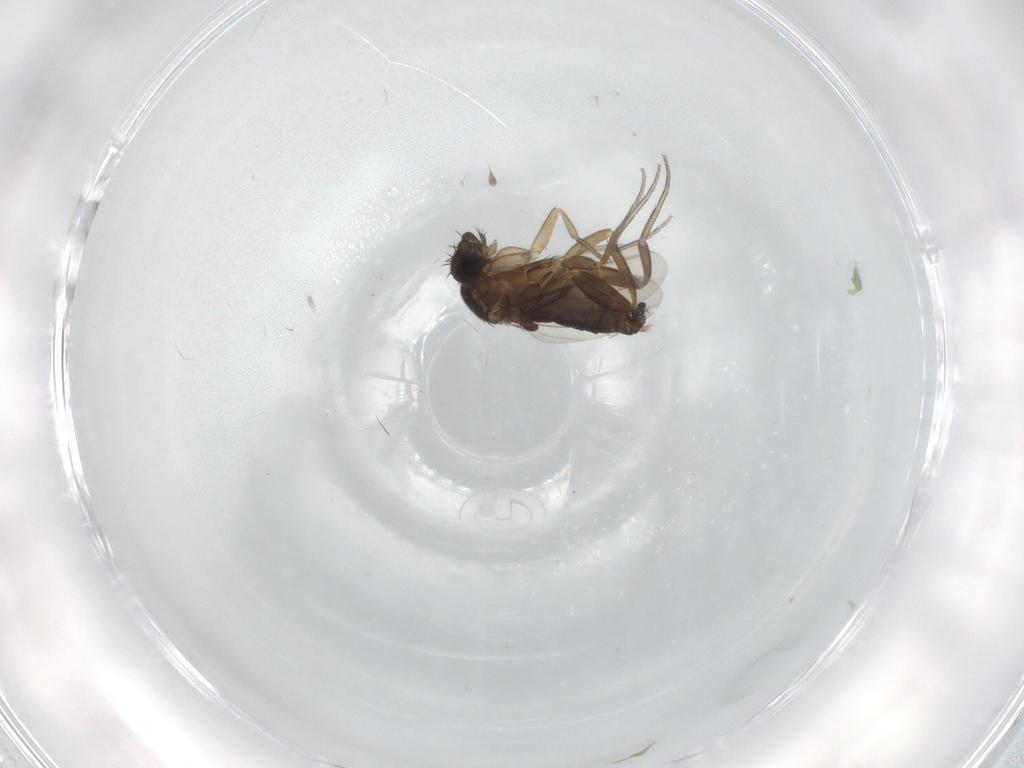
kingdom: Animalia
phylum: Arthropoda
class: Insecta
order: Diptera
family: Phoridae
